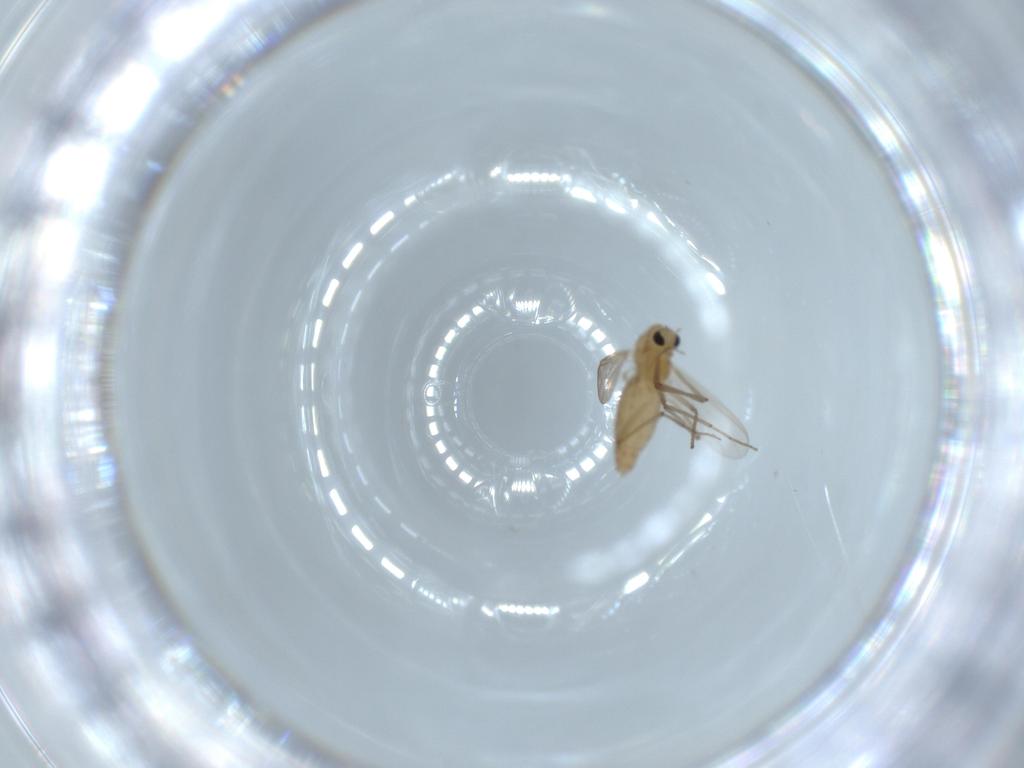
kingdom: Animalia
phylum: Arthropoda
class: Insecta
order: Diptera
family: Chironomidae
